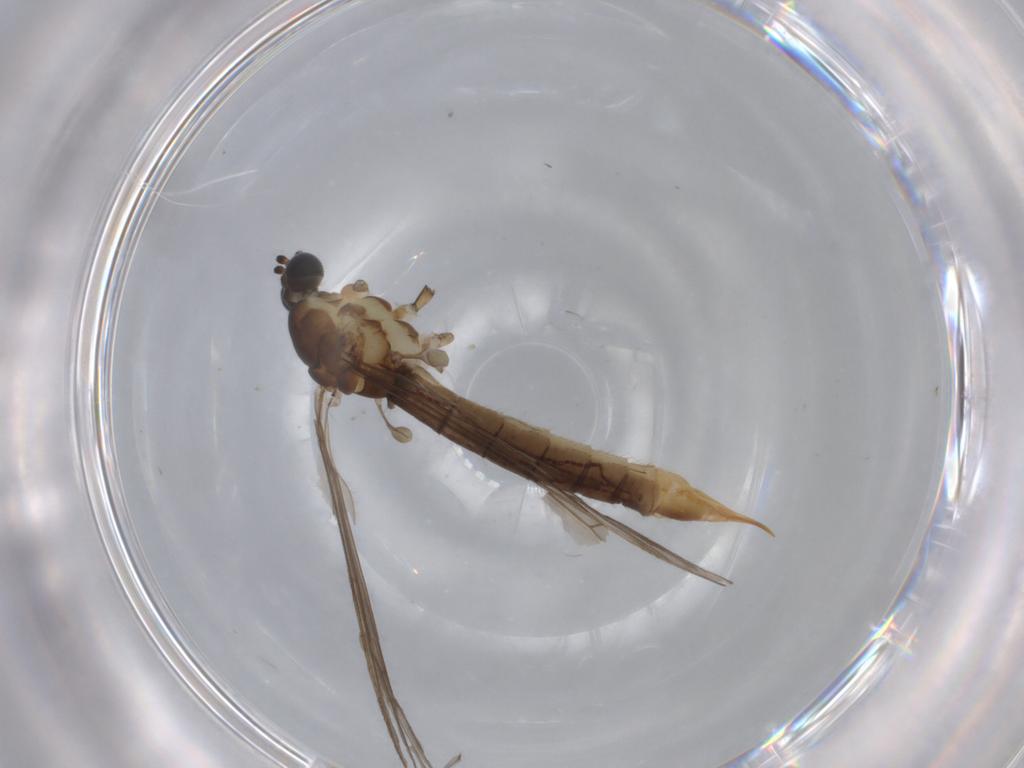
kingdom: Animalia
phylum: Arthropoda
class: Insecta
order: Diptera
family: Limoniidae
